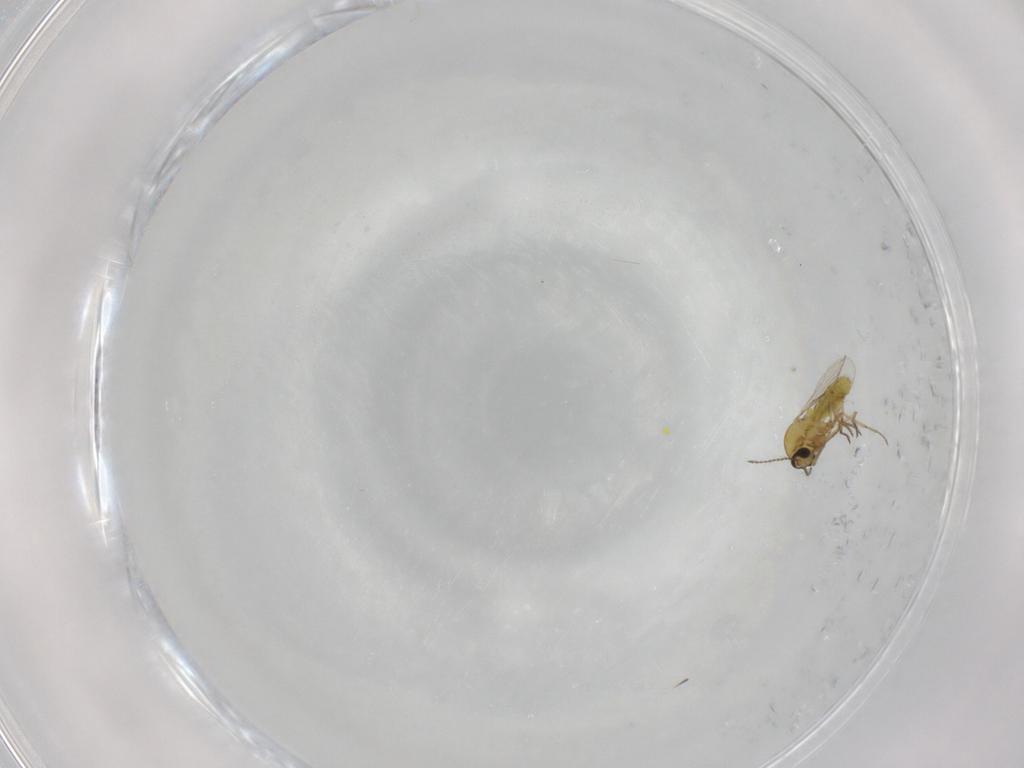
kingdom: Animalia
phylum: Arthropoda
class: Insecta
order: Diptera
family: Ceratopogonidae
